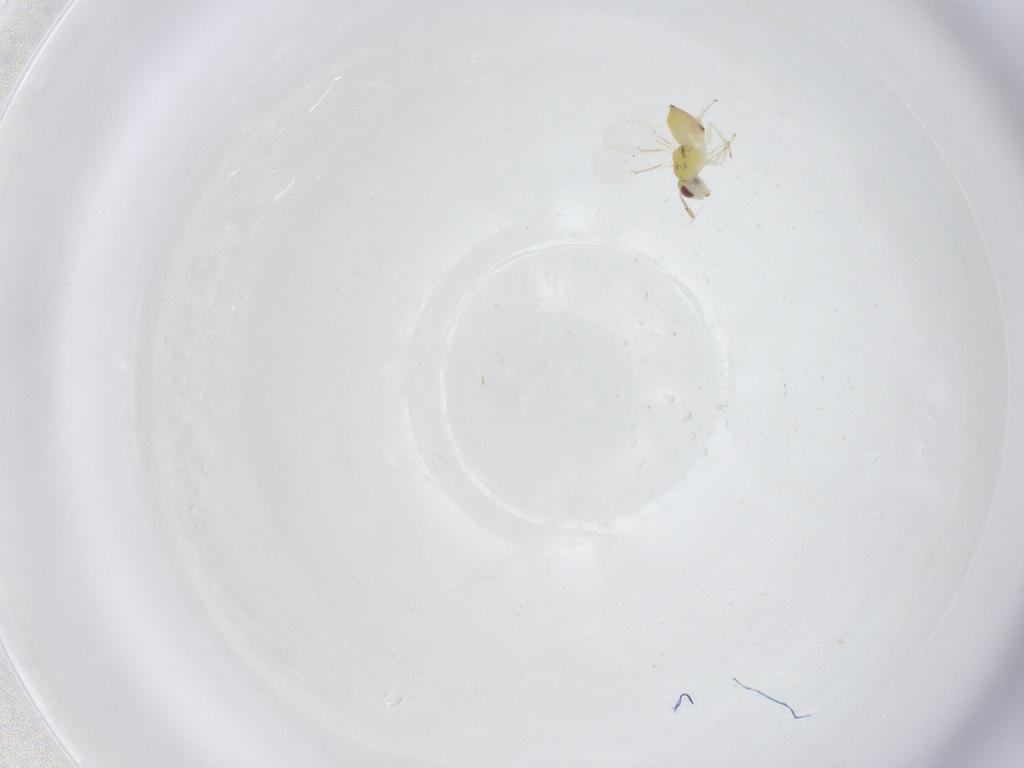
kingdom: Animalia
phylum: Arthropoda
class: Insecta
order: Hymenoptera
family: Eulophidae
